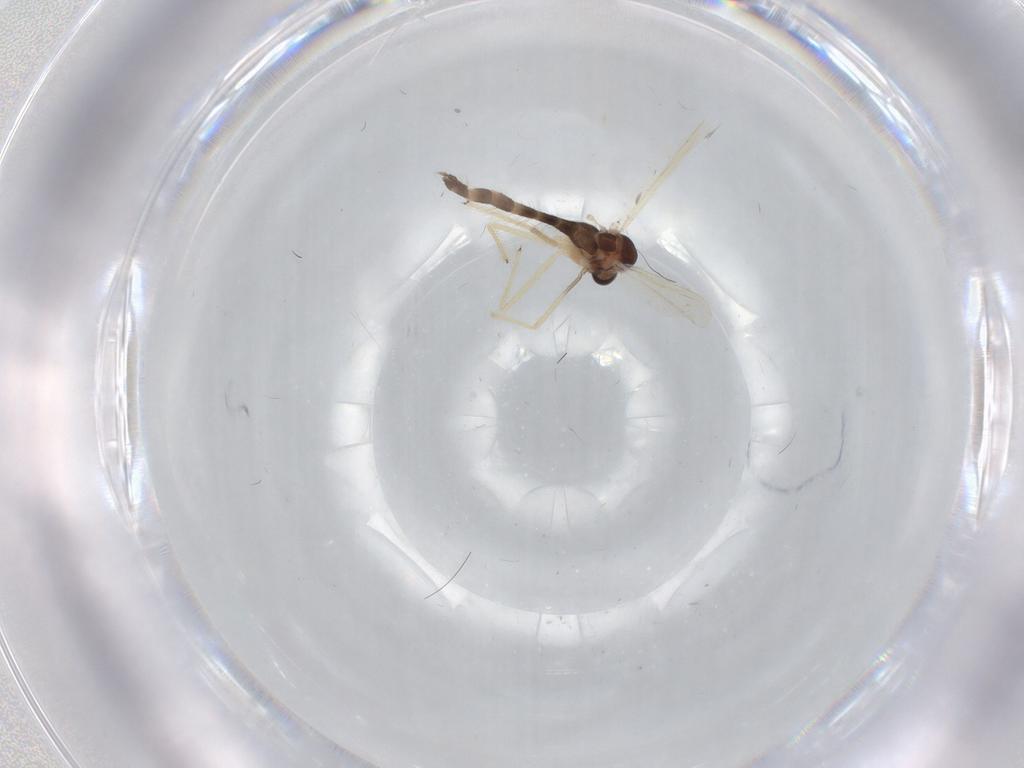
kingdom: Animalia
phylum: Arthropoda
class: Insecta
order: Diptera
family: Chironomidae
